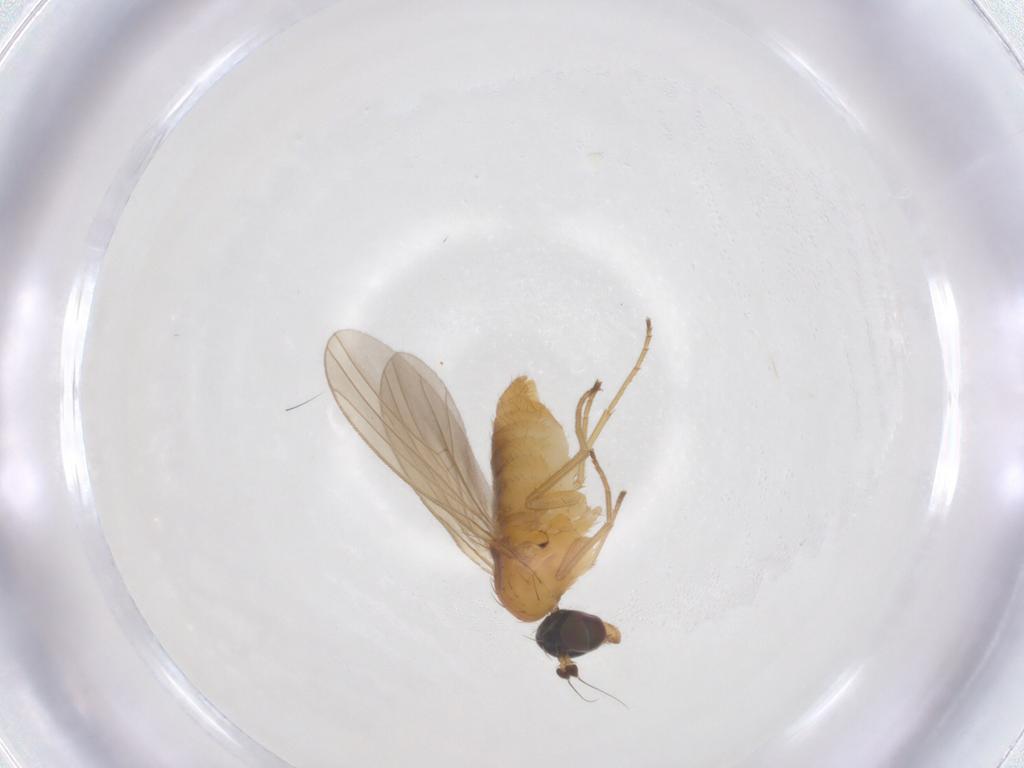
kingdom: Animalia
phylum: Arthropoda
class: Insecta
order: Diptera
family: Dolichopodidae
